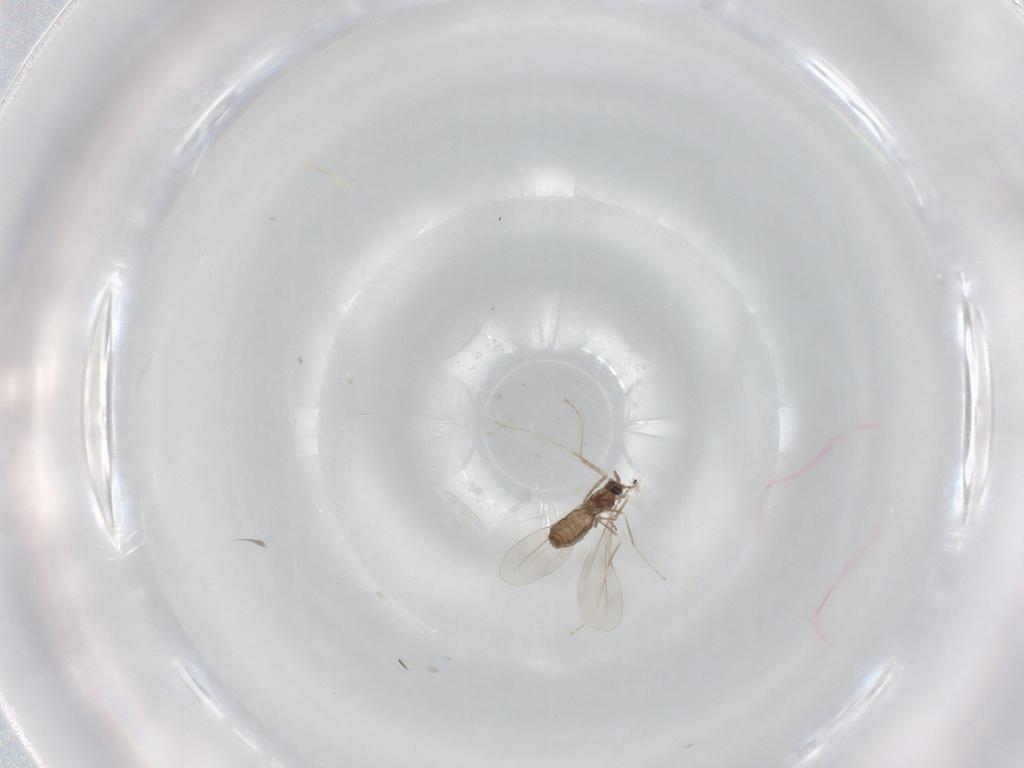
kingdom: Animalia
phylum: Arthropoda
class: Insecta
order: Diptera
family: Cecidomyiidae
